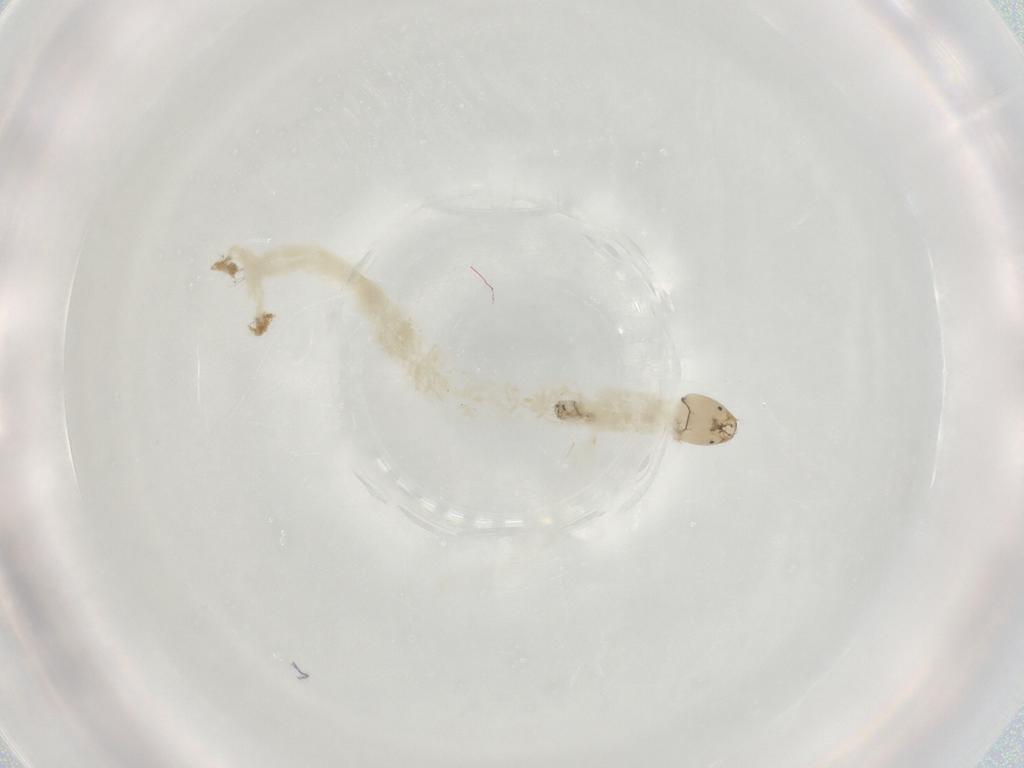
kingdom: Animalia
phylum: Arthropoda
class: Insecta
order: Diptera
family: Chironomidae
